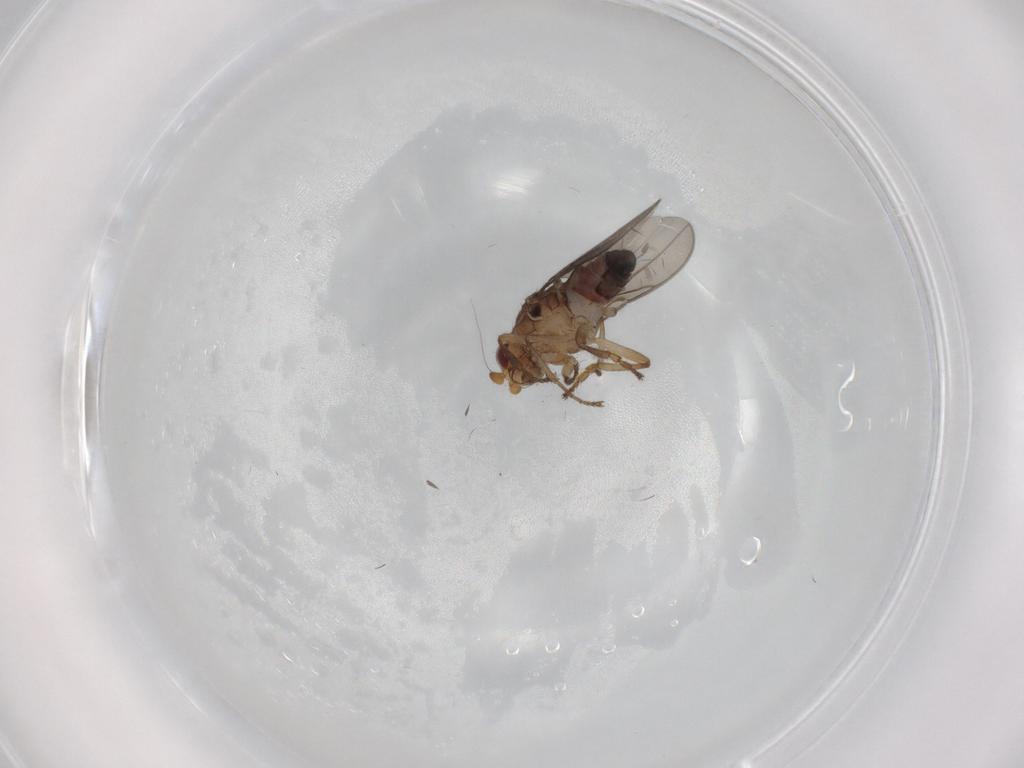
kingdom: Animalia
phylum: Arthropoda
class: Insecta
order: Diptera
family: Sphaeroceridae
